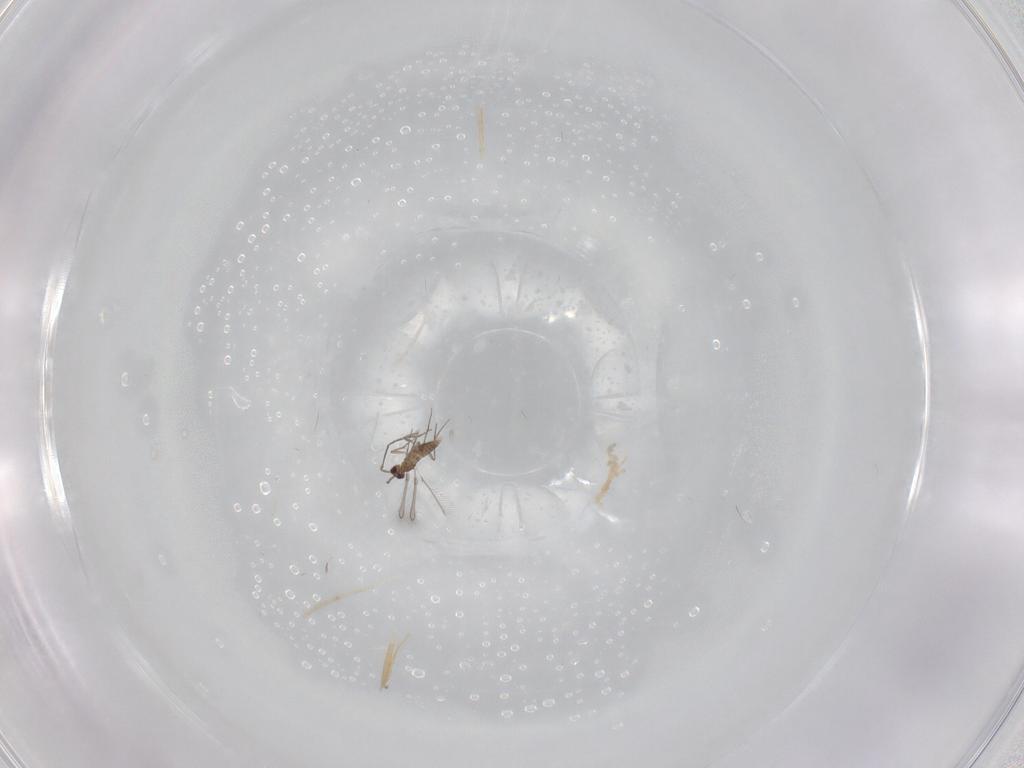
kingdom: Animalia
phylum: Arthropoda
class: Insecta
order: Hymenoptera
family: Mymaridae
